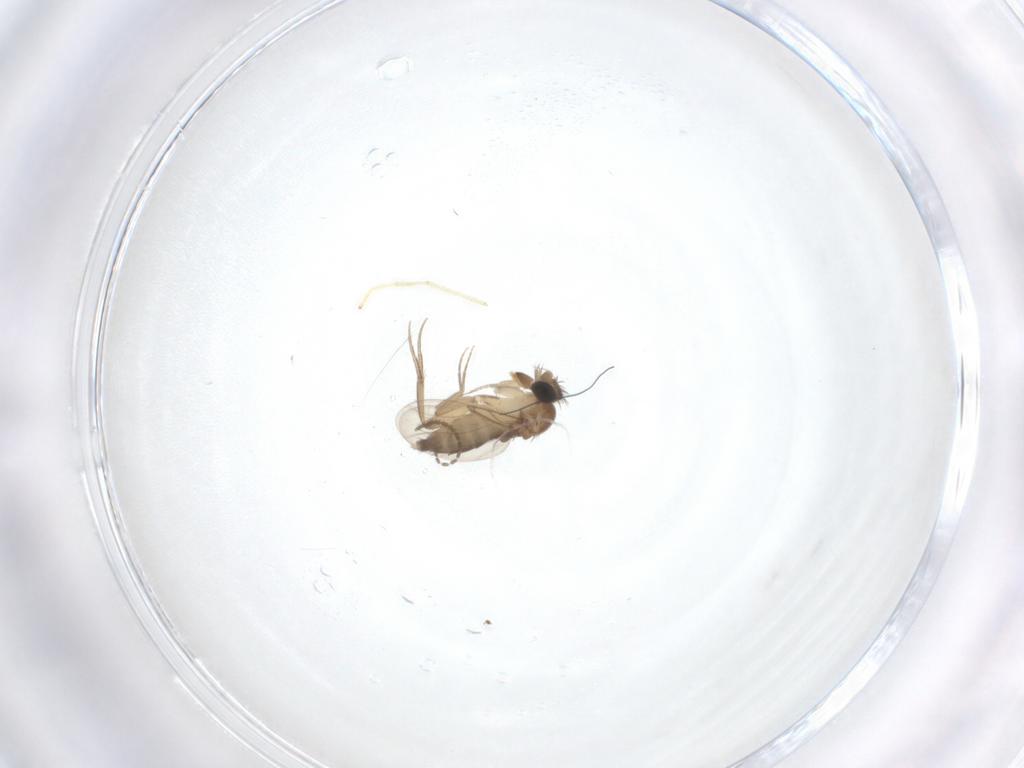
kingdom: Animalia
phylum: Arthropoda
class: Insecta
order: Diptera
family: Phoridae
